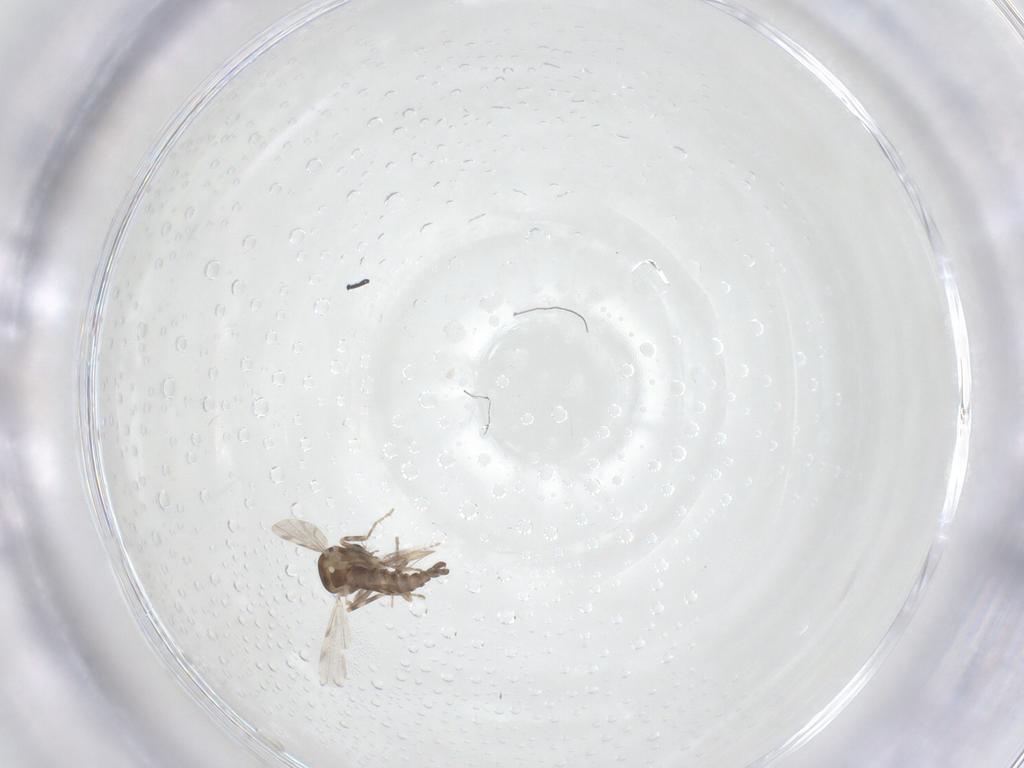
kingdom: Animalia
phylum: Arthropoda
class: Insecta
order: Diptera
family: Ceratopogonidae
